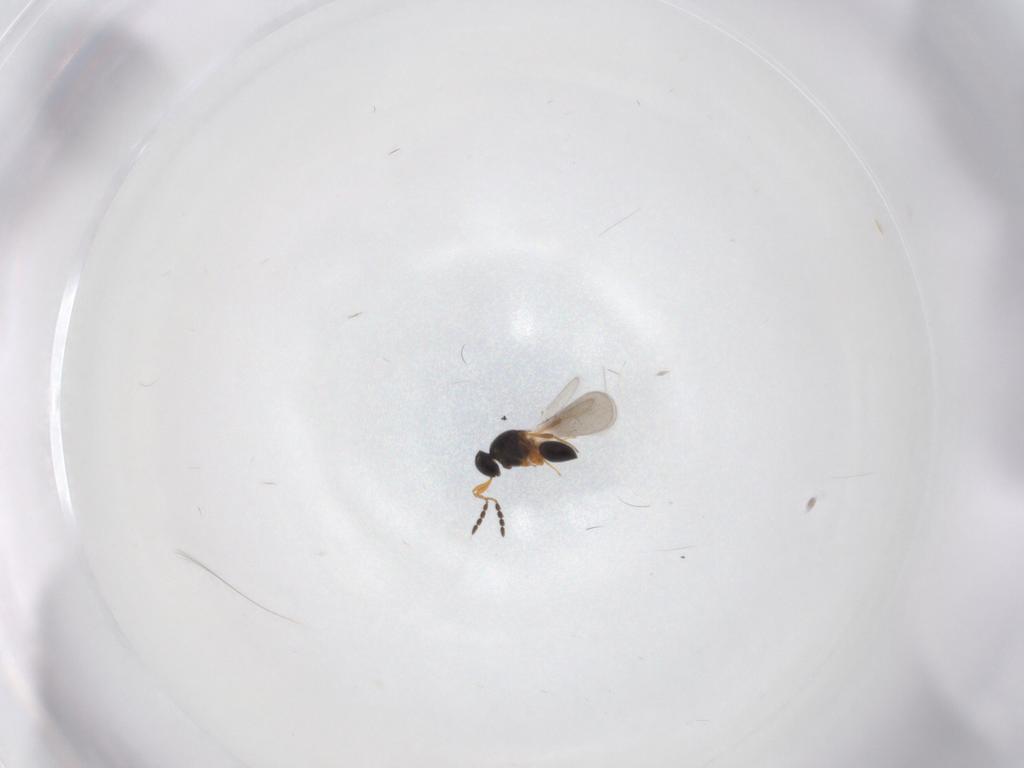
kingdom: Animalia
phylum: Arthropoda
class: Insecta
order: Hymenoptera
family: Platygastridae
